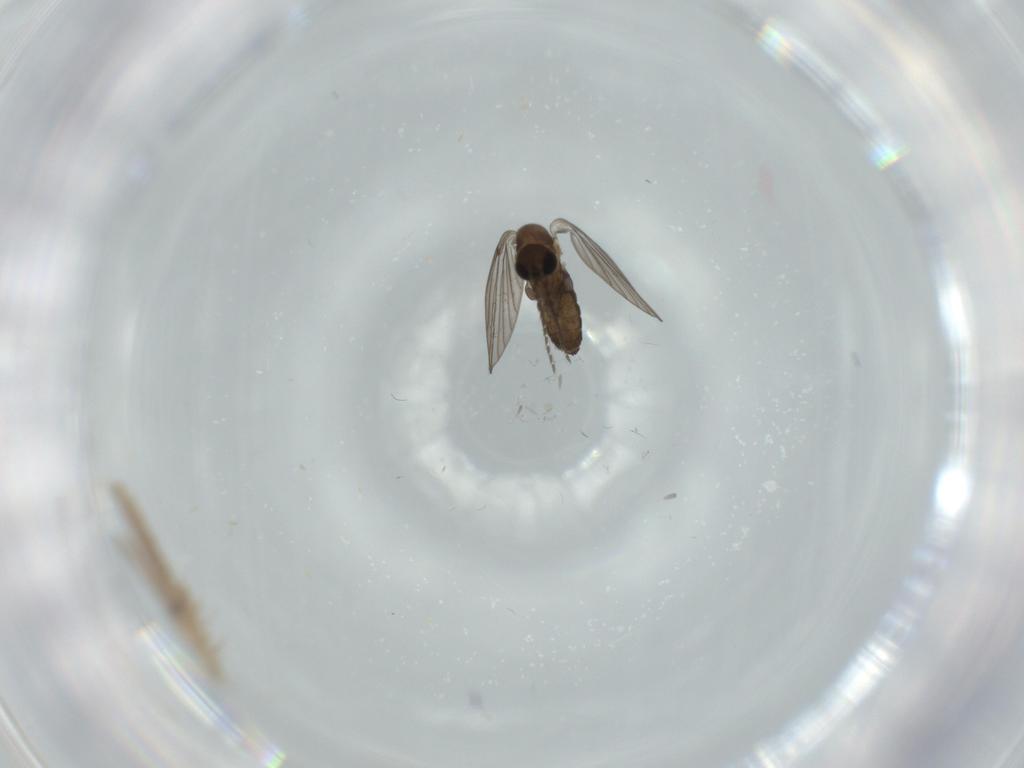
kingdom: Animalia
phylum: Arthropoda
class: Insecta
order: Diptera
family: Psychodidae
